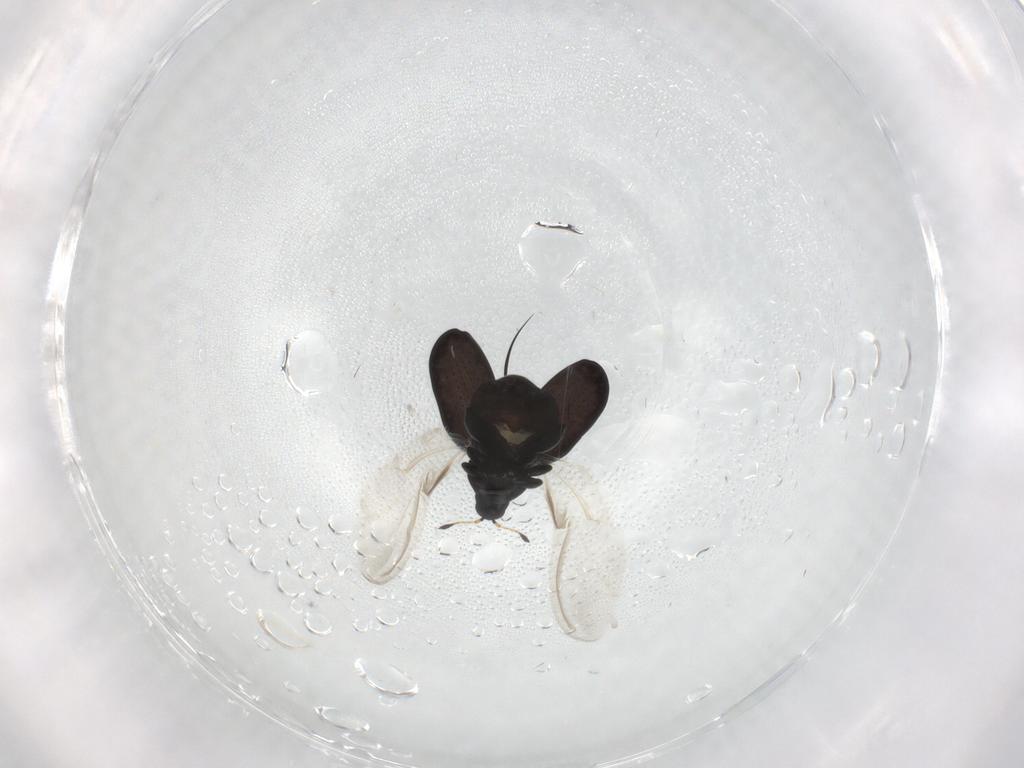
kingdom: Animalia
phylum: Arthropoda
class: Insecta
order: Coleoptera
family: Curculionidae
